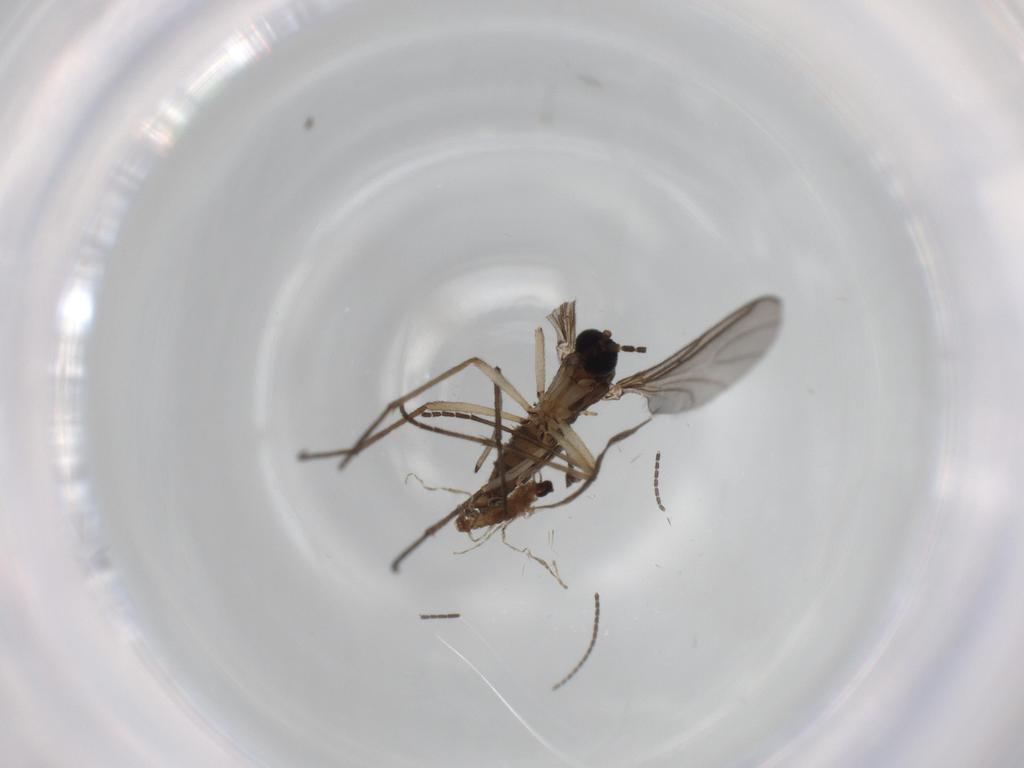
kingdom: Animalia
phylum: Arthropoda
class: Insecta
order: Diptera
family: Cecidomyiidae
